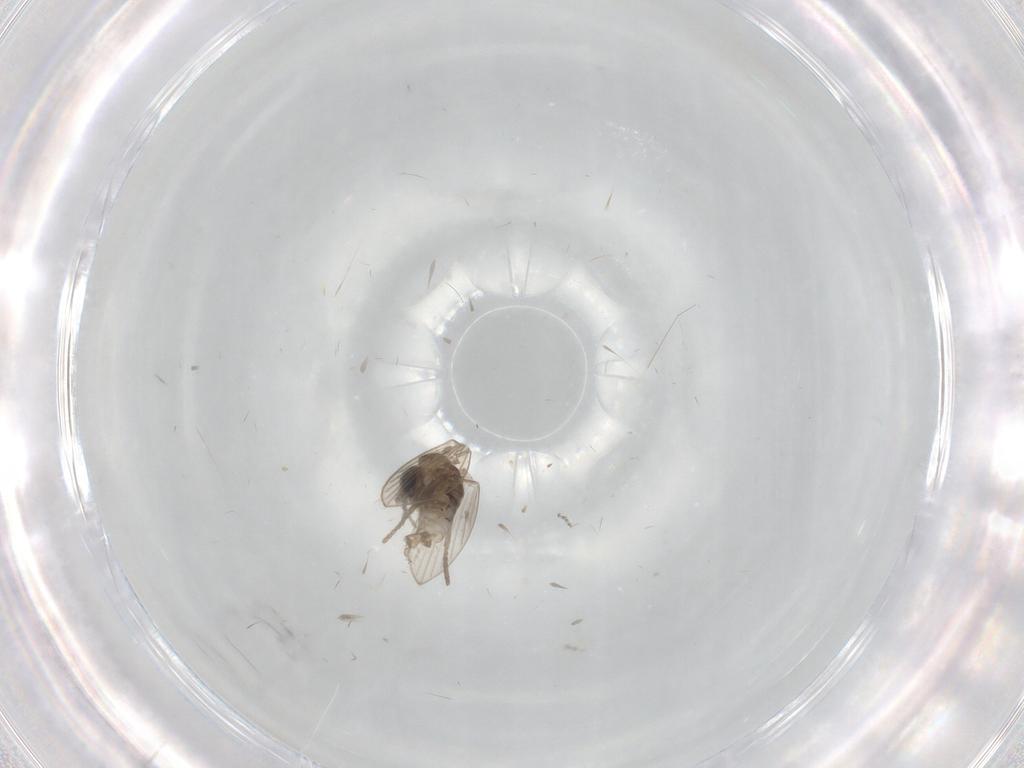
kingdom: Animalia
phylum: Arthropoda
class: Insecta
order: Diptera
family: Psychodidae
